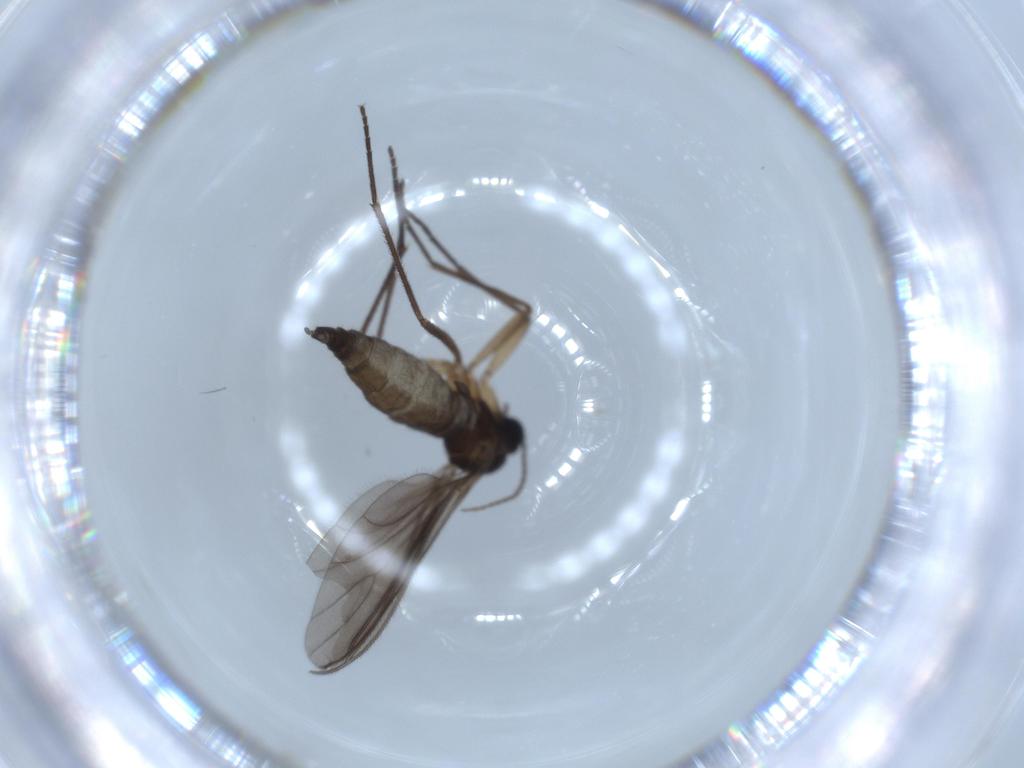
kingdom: Animalia
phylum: Arthropoda
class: Insecta
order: Diptera
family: Sciaridae
